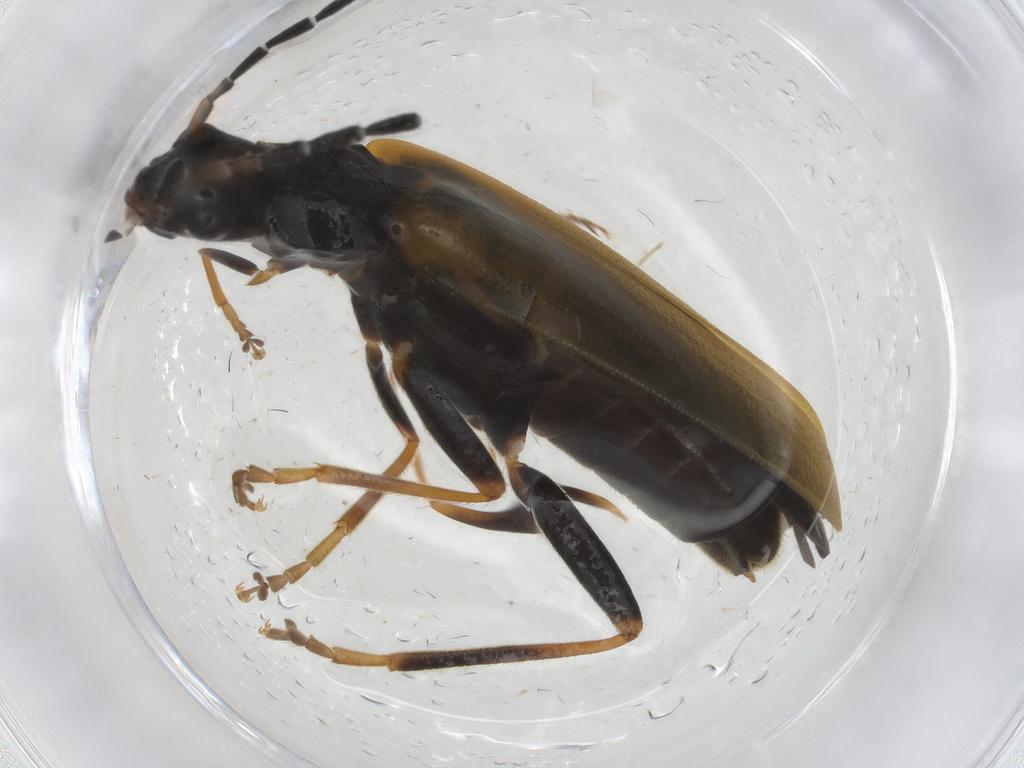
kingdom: Animalia
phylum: Arthropoda
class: Insecta
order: Coleoptera
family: Cantharidae
